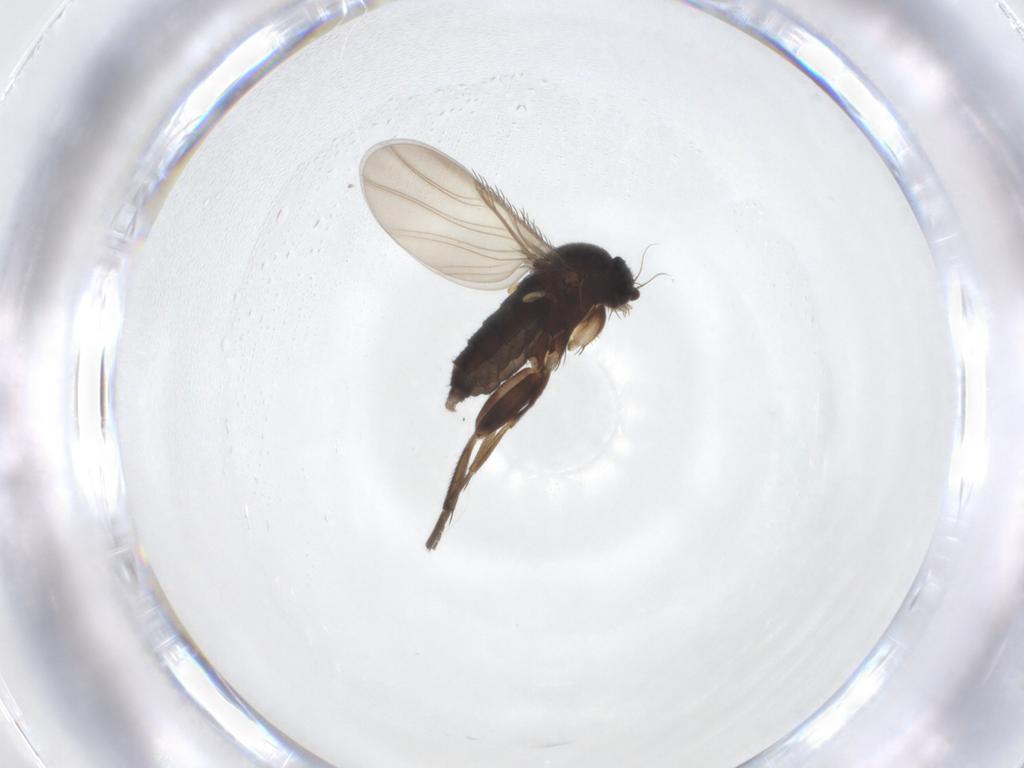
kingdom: Animalia
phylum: Arthropoda
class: Insecta
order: Diptera
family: Phoridae
